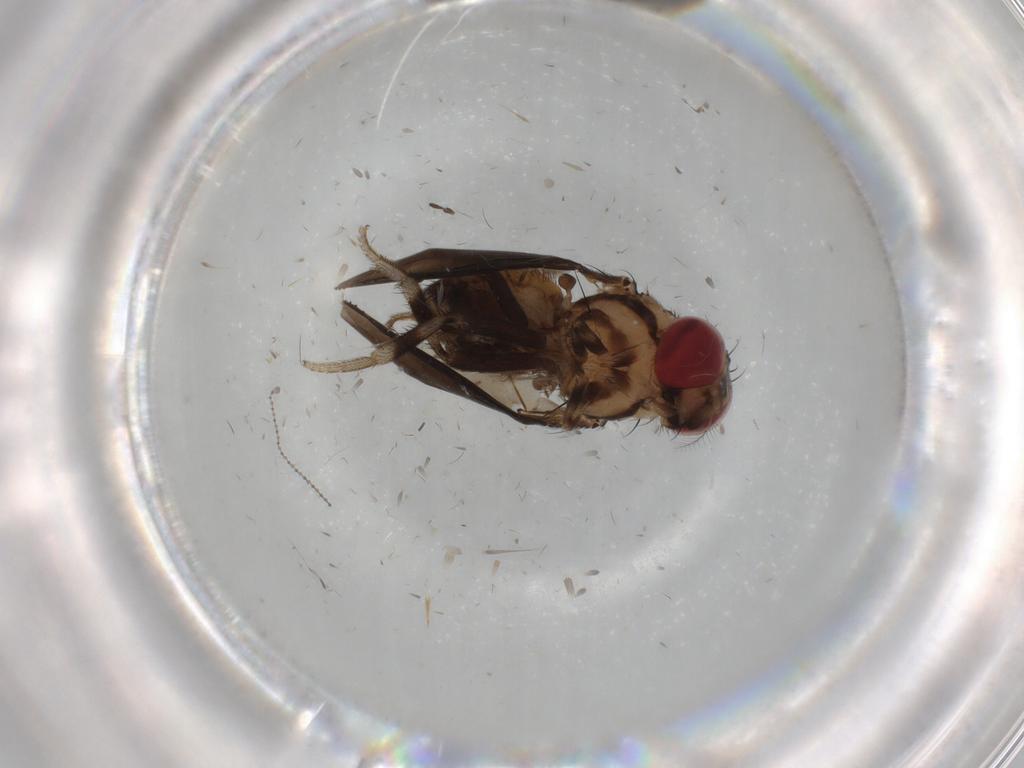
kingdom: Animalia
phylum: Arthropoda
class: Insecta
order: Diptera
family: Drosophilidae
